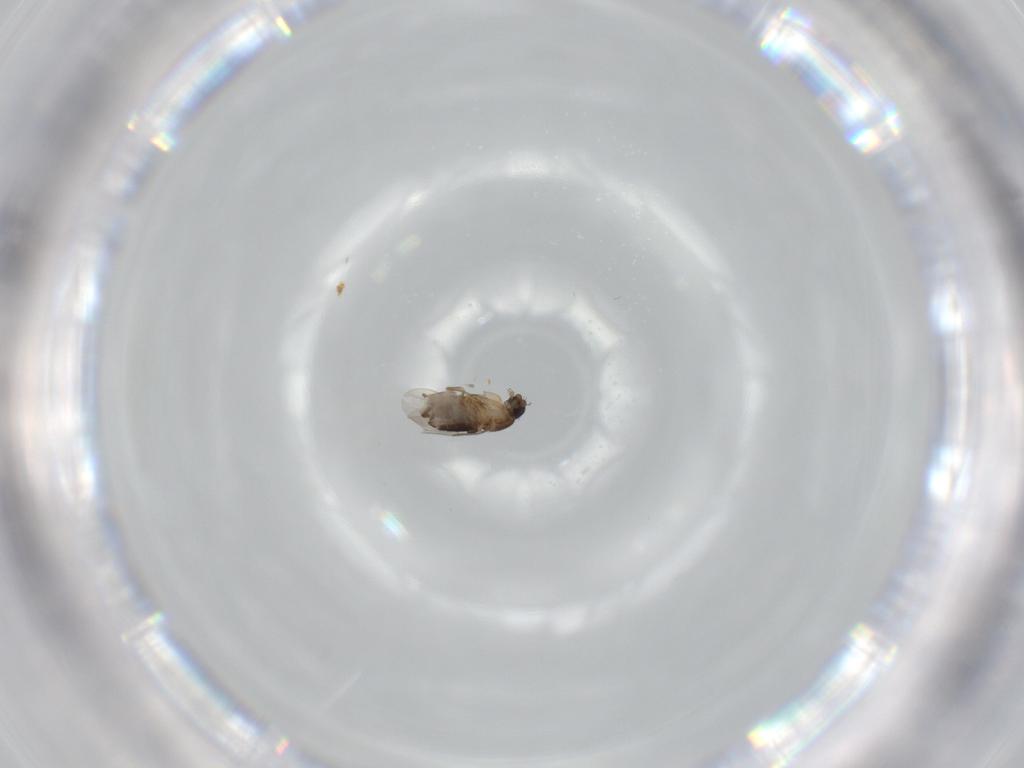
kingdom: Animalia
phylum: Arthropoda
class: Insecta
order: Diptera
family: Phoridae
